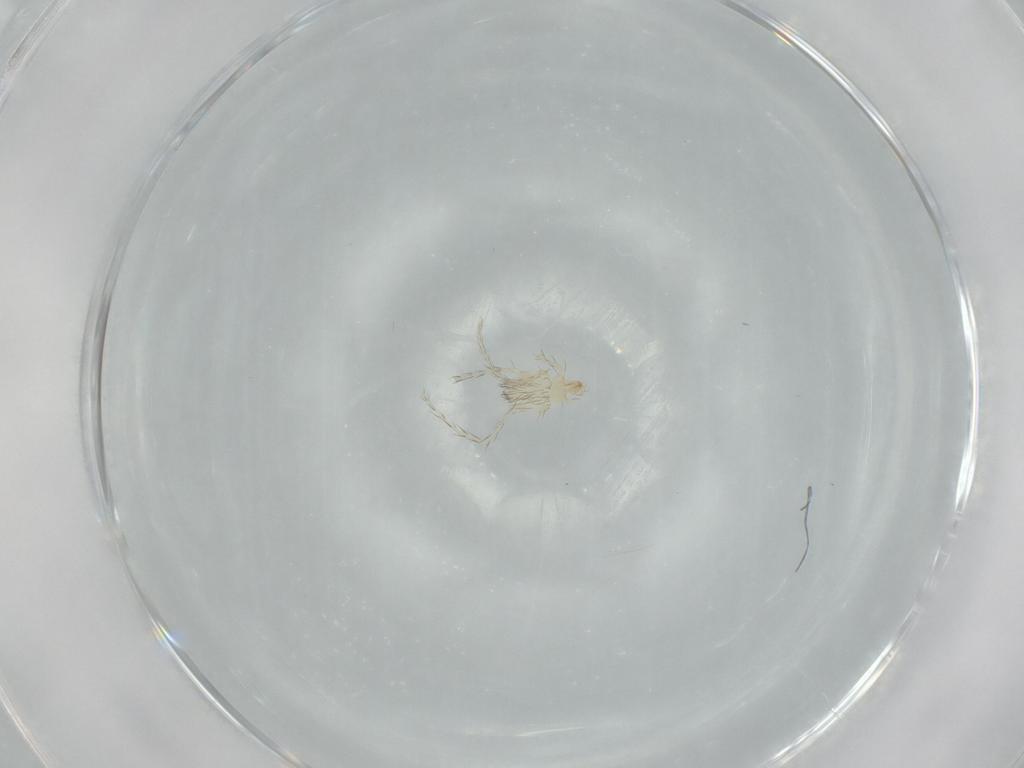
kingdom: Animalia
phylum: Arthropoda
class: Arachnida
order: Trombidiformes
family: Erythraeidae
